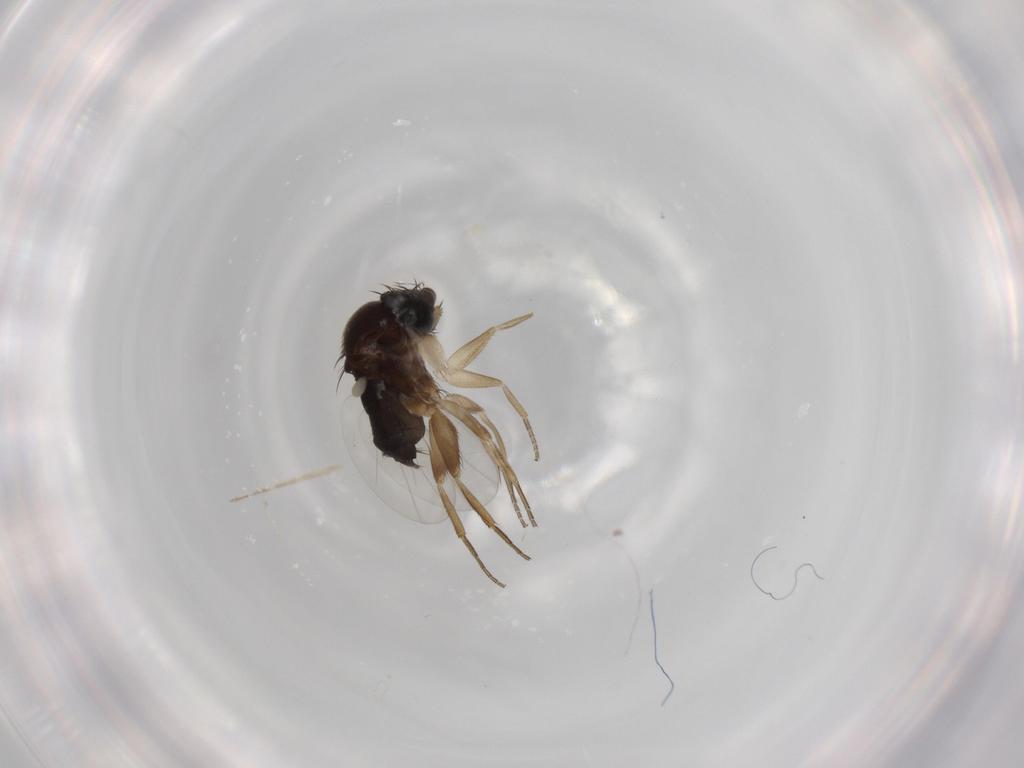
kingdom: Animalia
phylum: Arthropoda
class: Insecta
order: Diptera
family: Phoridae
